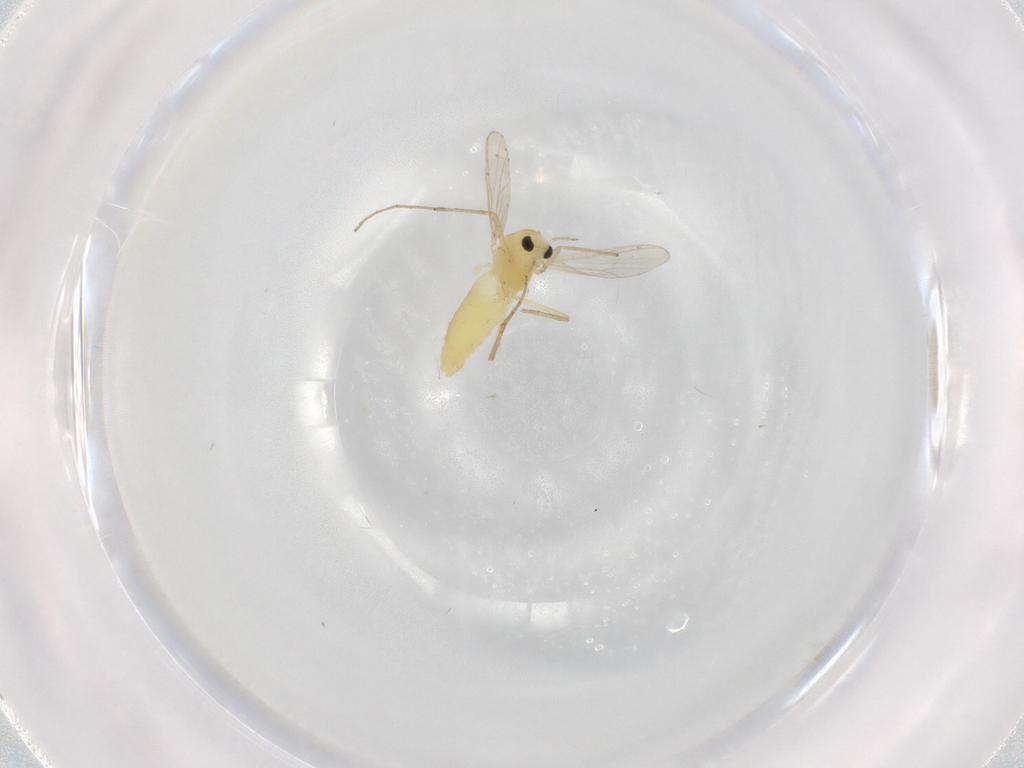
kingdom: Animalia
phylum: Arthropoda
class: Insecta
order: Diptera
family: Chironomidae
